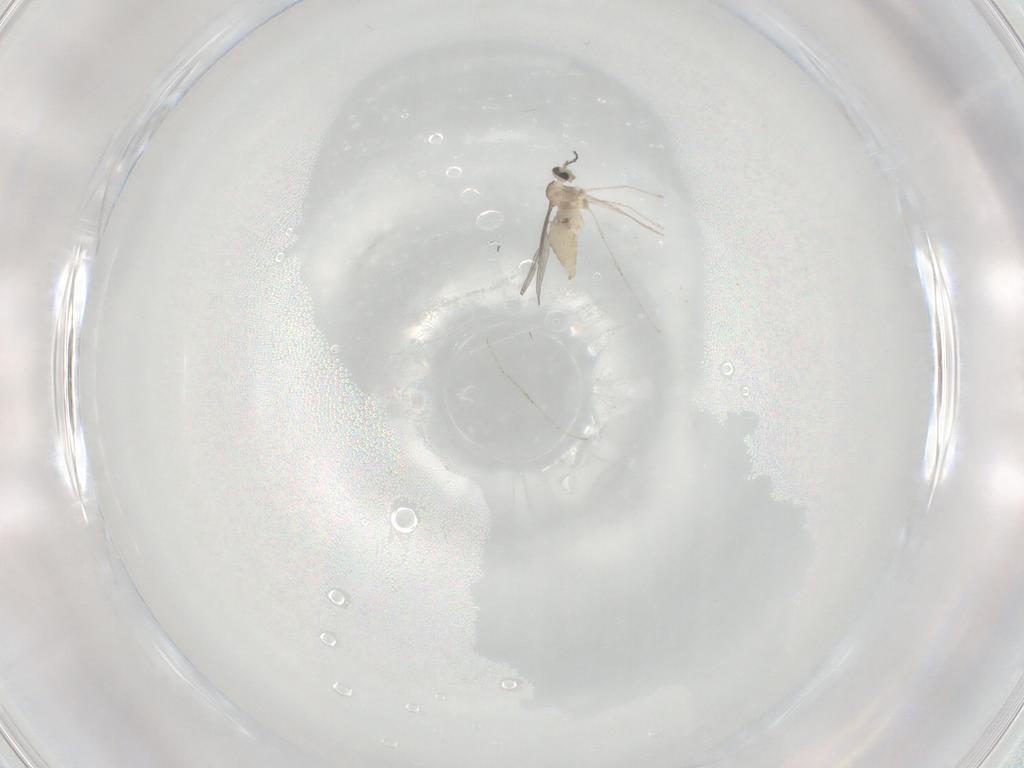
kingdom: Animalia
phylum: Arthropoda
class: Insecta
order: Diptera
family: Cecidomyiidae
